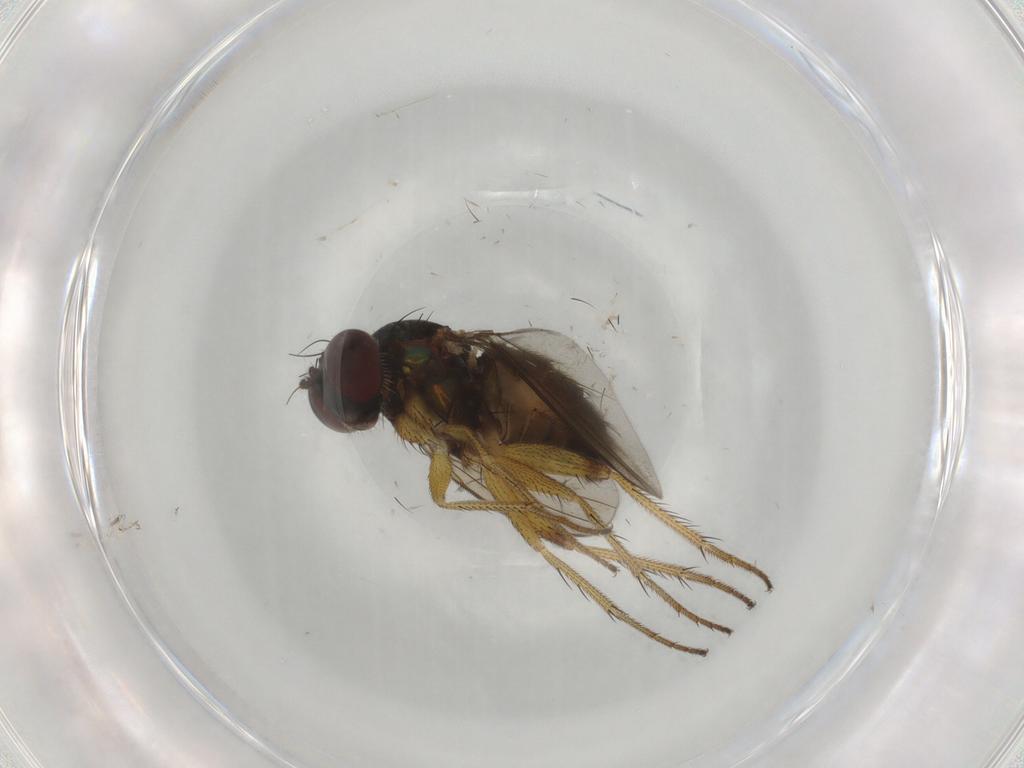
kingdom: Animalia
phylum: Arthropoda
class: Insecta
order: Diptera
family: Dolichopodidae
